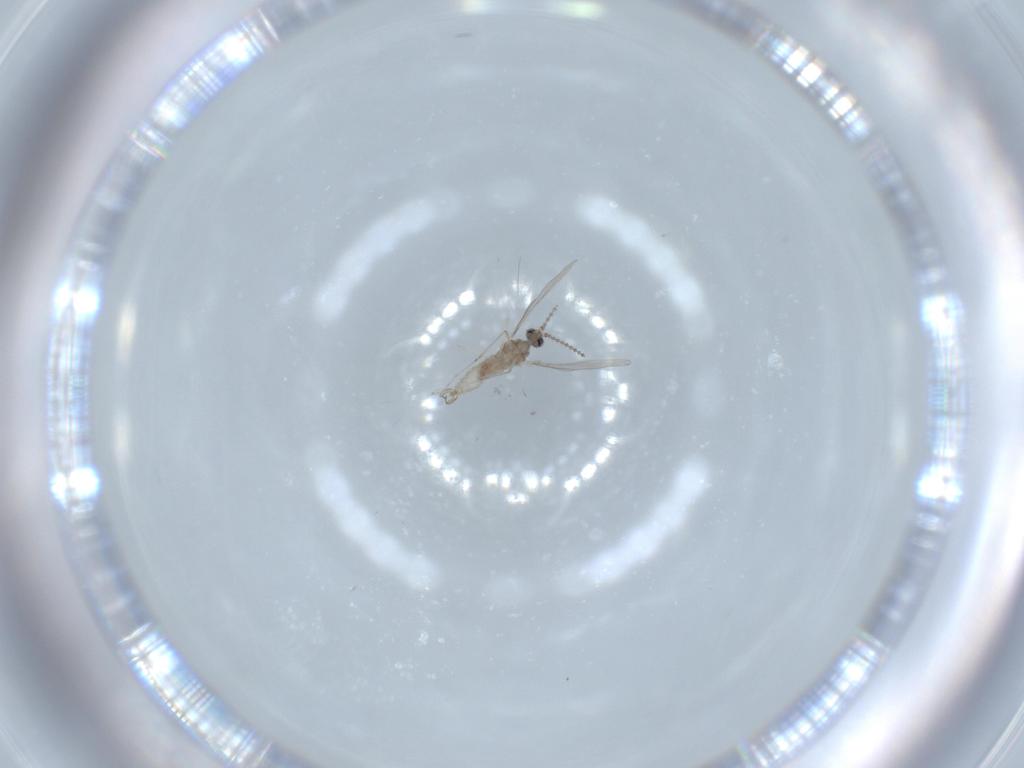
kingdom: Animalia
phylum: Arthropoda
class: Insecta
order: Diptera
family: Cecidomyiidae
